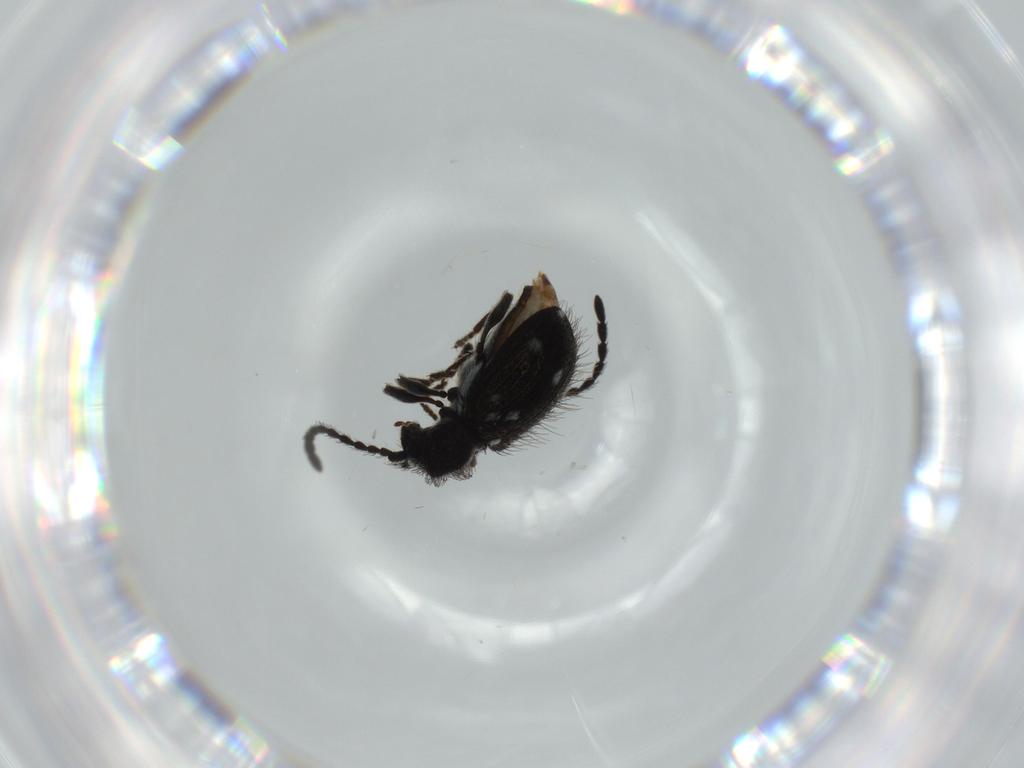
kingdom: Animalia
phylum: Arthropoda
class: Insecta
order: Coleoptera
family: Ptinidae
